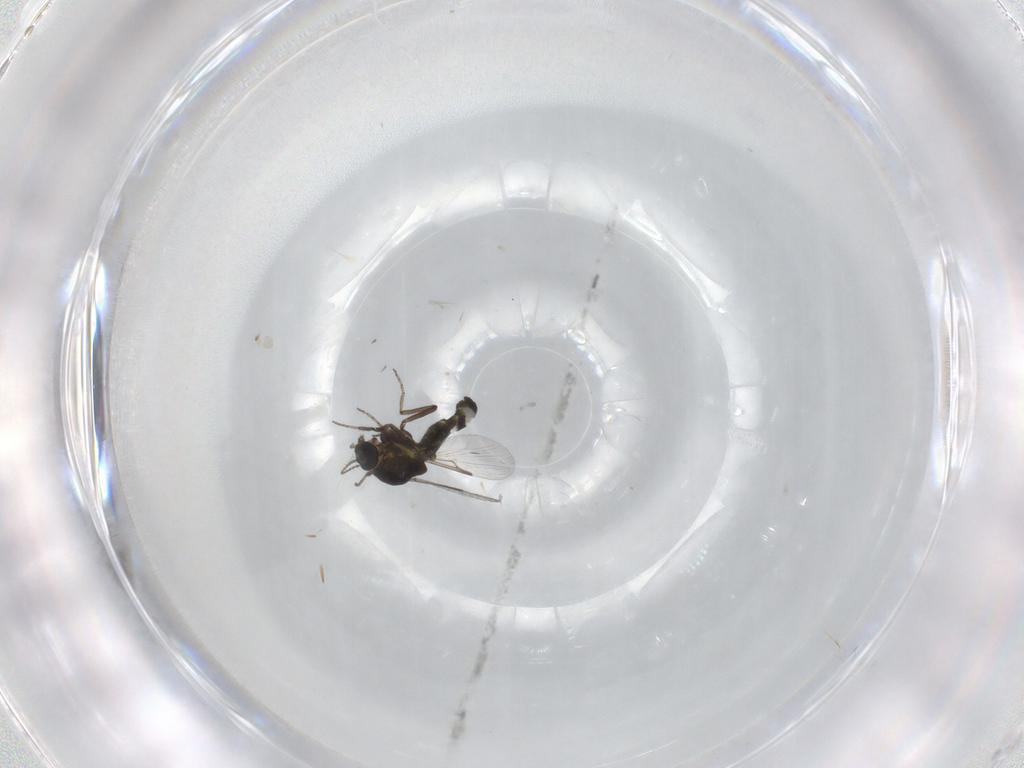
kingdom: Animalia
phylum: Arthropoda
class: Insecta
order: Diptera
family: Ceratopogonidae
